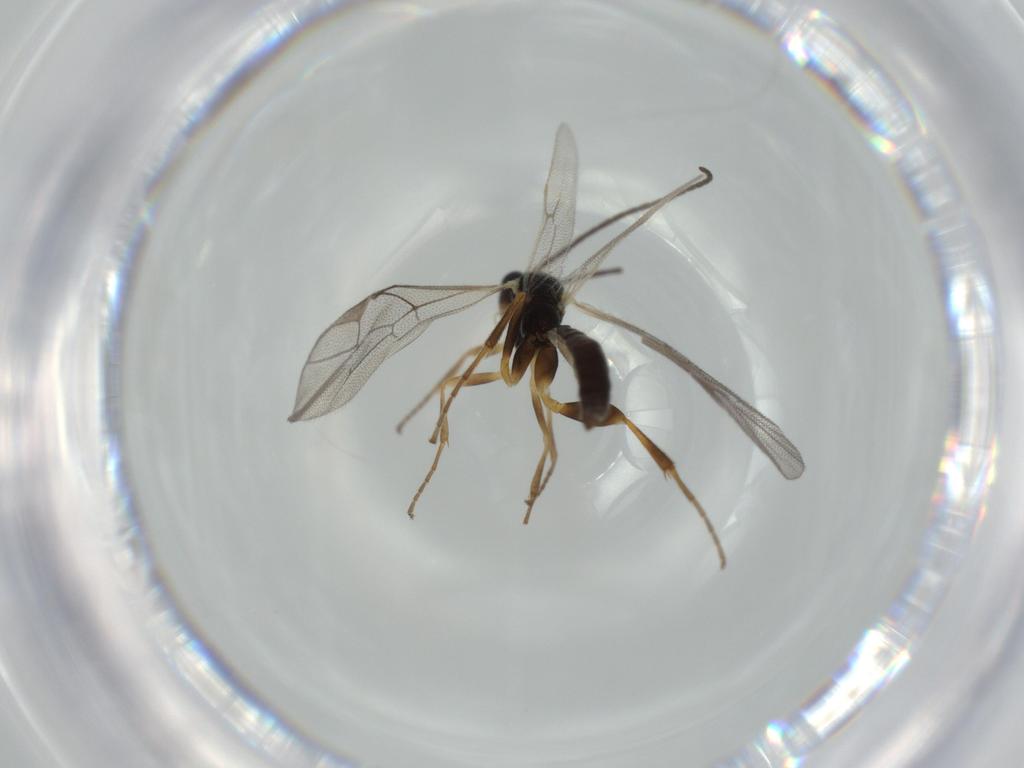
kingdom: Animalia
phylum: Arthropoda
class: Insecta
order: Hymenoptera
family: Ichneumonidae
